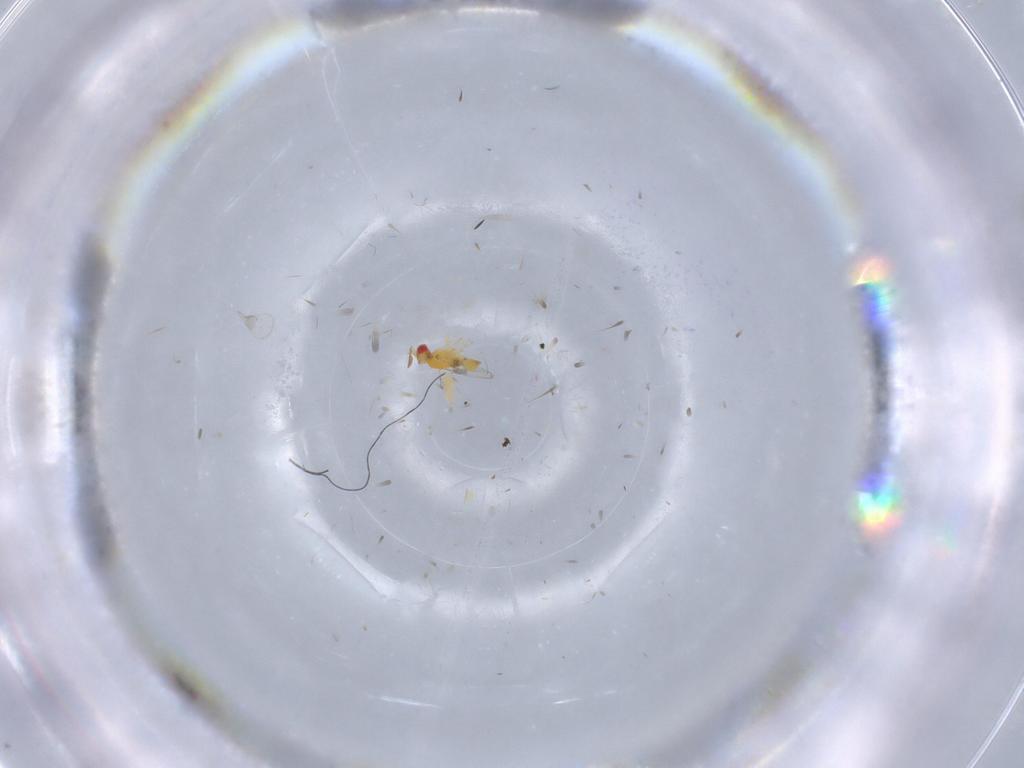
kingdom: Animalia
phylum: Arthropoda
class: Insecta
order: Hymenoptera
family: Trichogrammatidae
